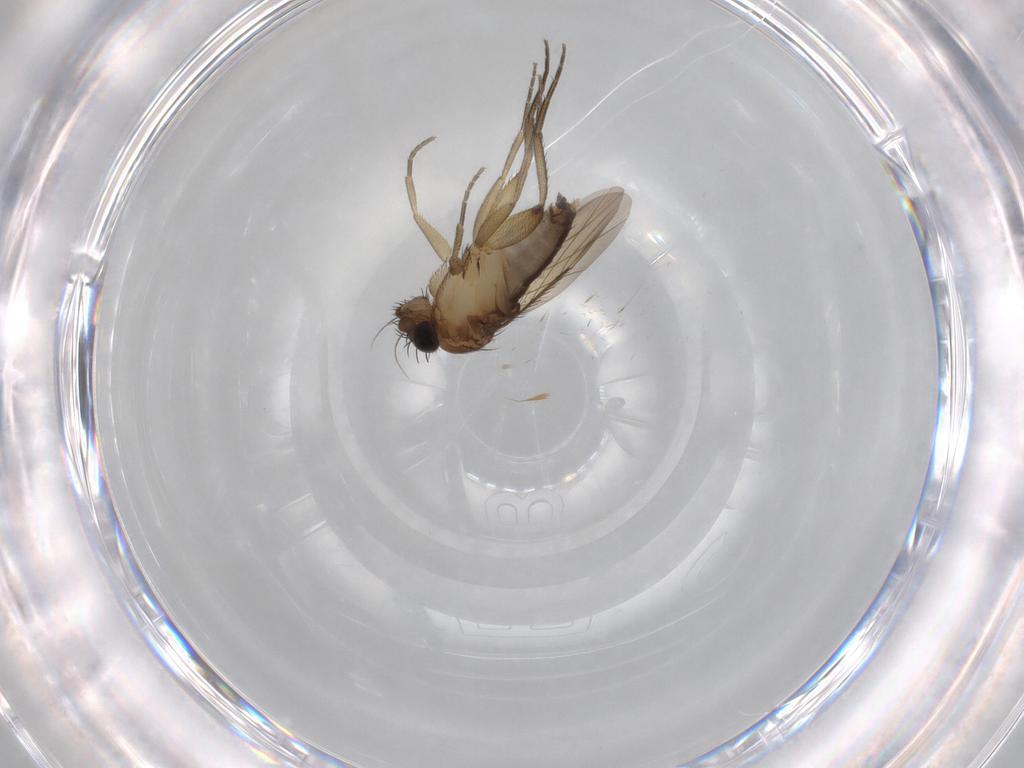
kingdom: Animalia
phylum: Arthropoda
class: Insecta
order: Diptera
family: Phoridae
